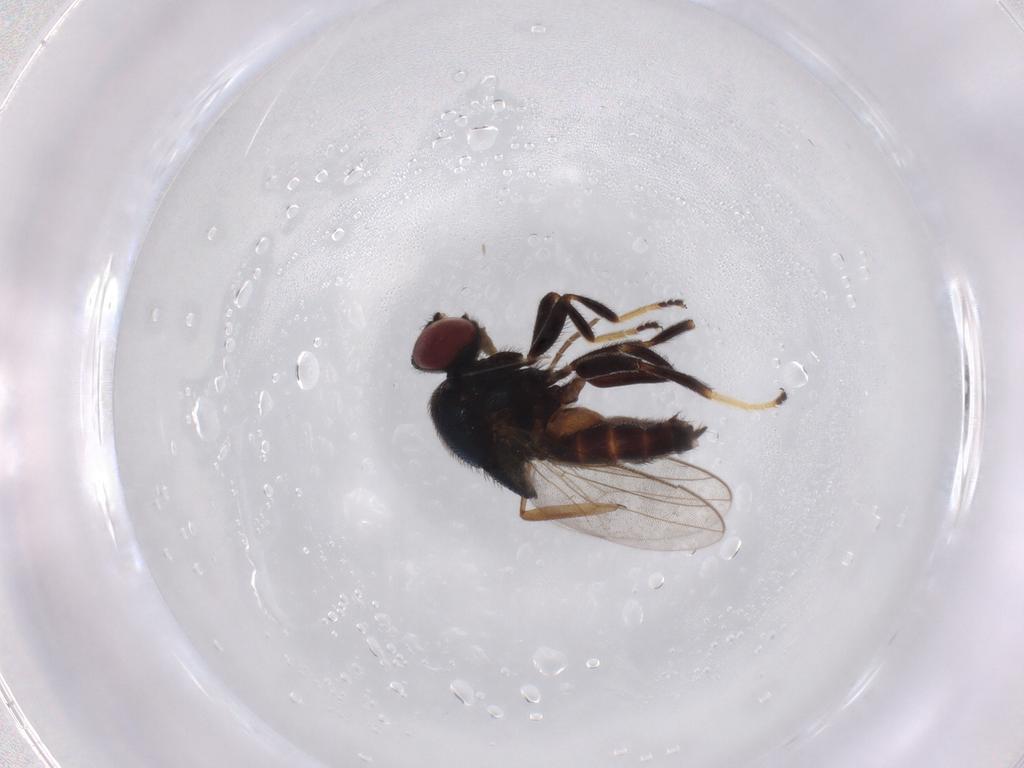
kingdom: Animalia
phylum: Arthropoda
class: Insecta
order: Diptera
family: Chloropidae
